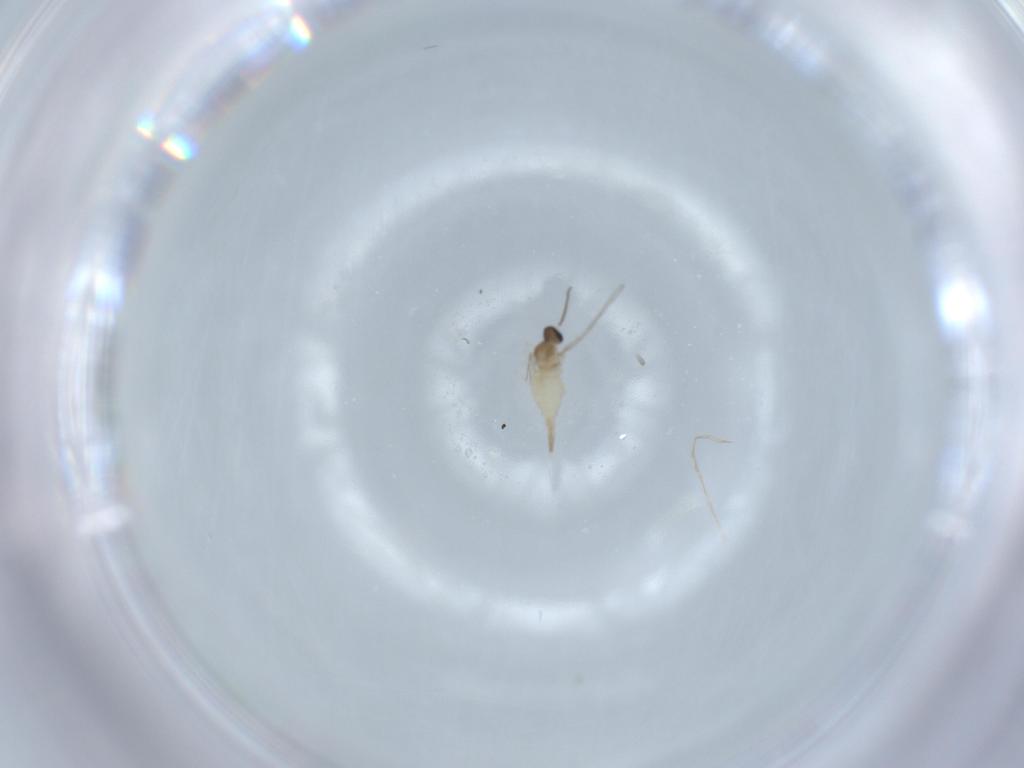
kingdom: Animalia
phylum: Arthropoda
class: Insecta
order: Diptera
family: Cecidomyiidae
